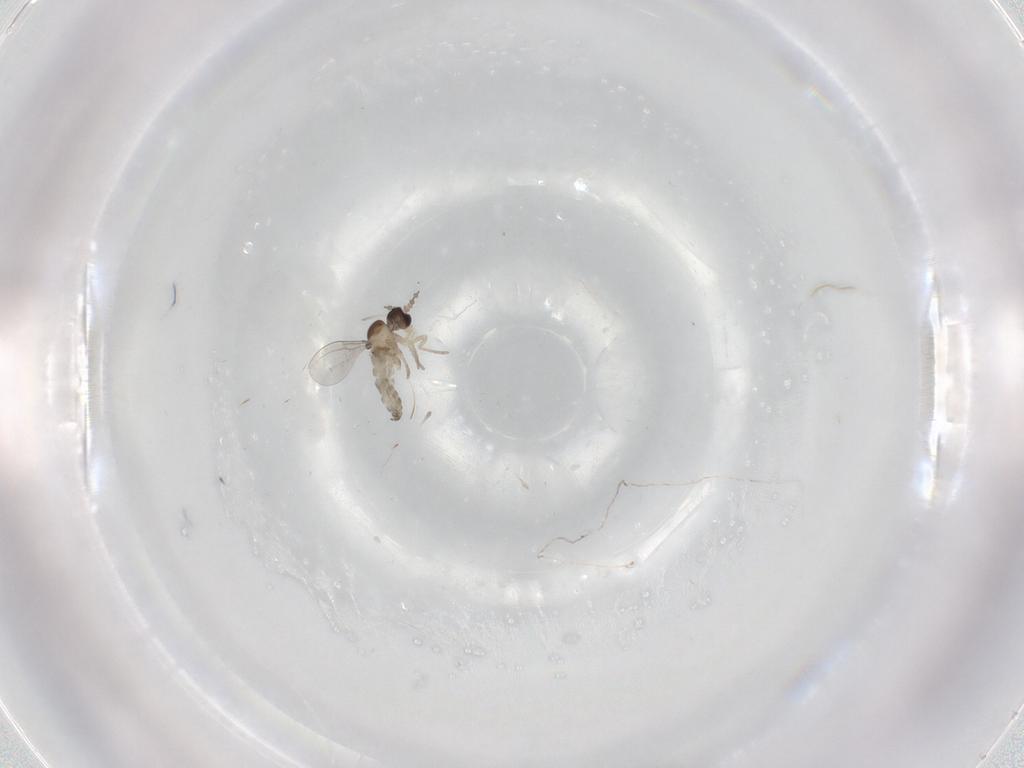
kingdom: Animalia
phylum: Arthropoda
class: Insecta
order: Diptera
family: Cecidomyiidae
